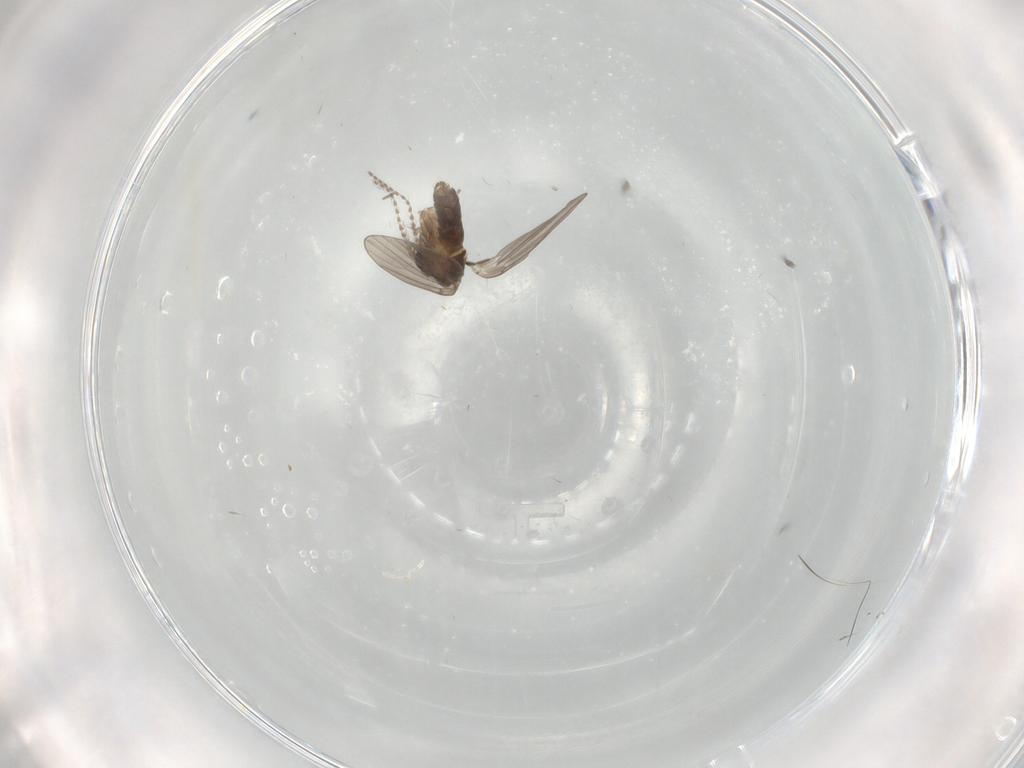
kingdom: Animalia
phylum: Arthropoda
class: Insecta
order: Diptera
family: Psychodidae
